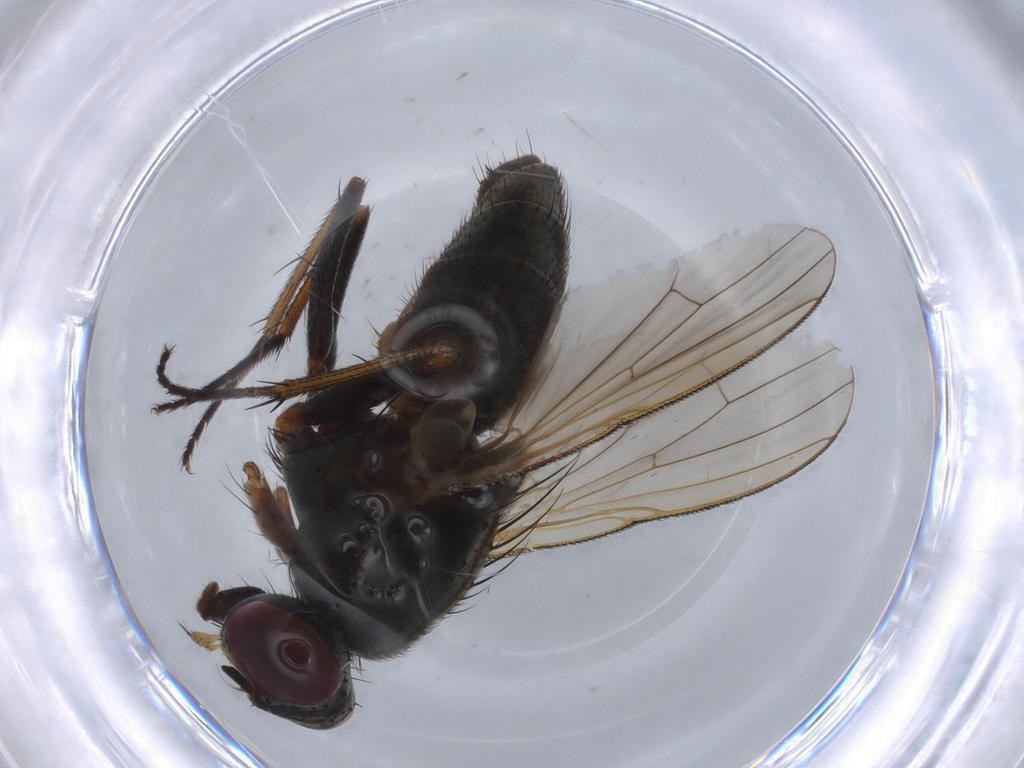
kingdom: Animalia
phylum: Arthropoda
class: Insecta
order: Diptera
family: Muscidae
